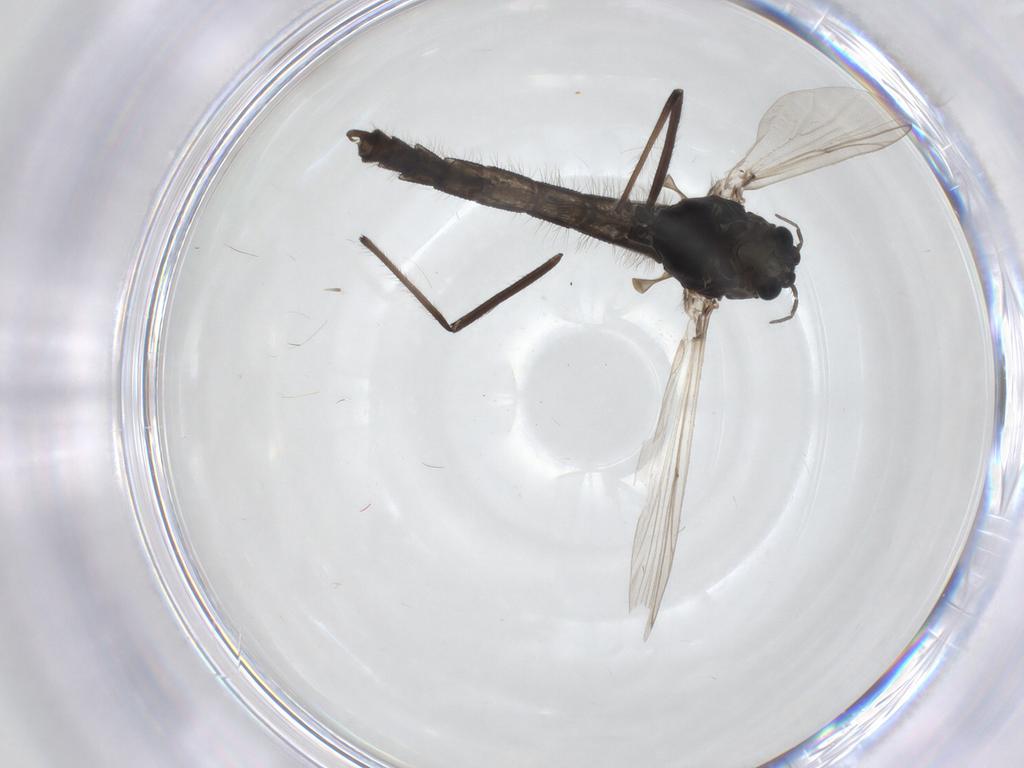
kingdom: Animalia
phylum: Arthropoda
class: Insecta
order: Diptera
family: Chironomidae
